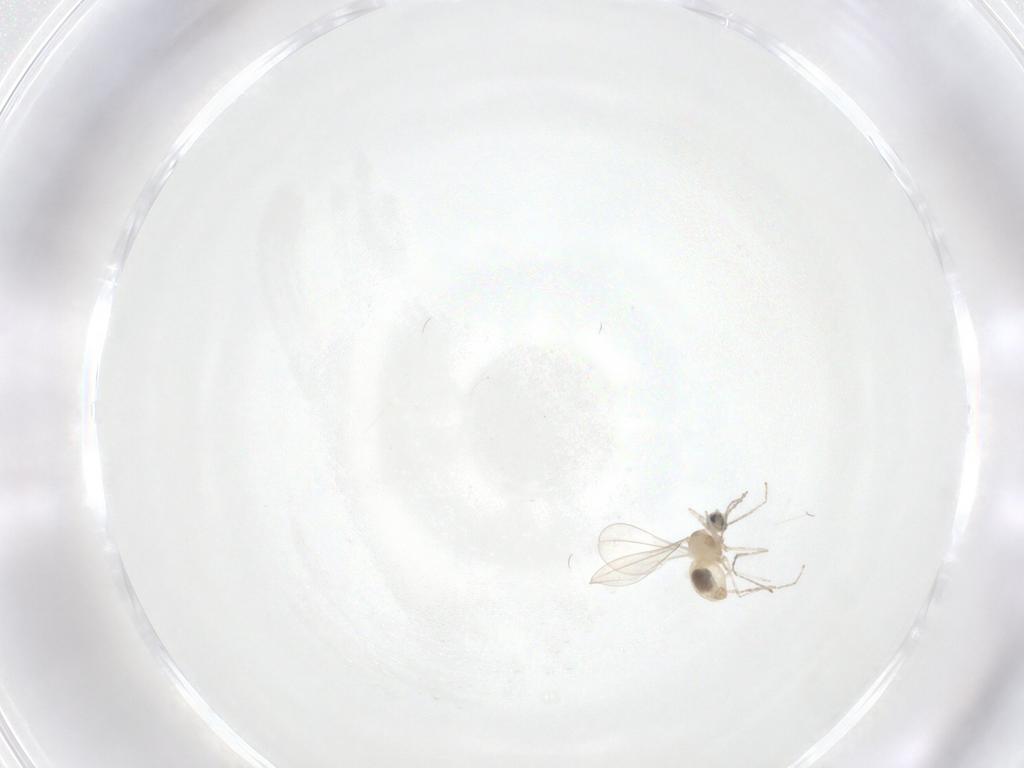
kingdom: Animalia
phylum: Arthropoda
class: Insecta
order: Diptera
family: Cecidomyiidae
